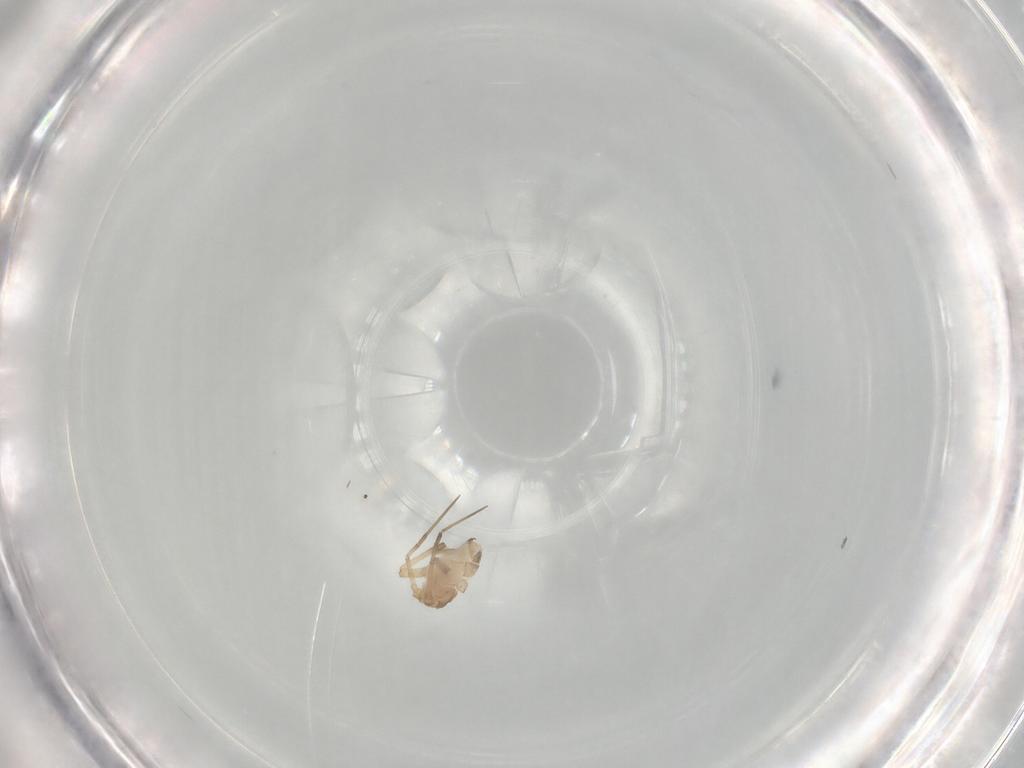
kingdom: Animalia
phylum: Arthropoda
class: Insecta
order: Hemiptera
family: Aphididae
